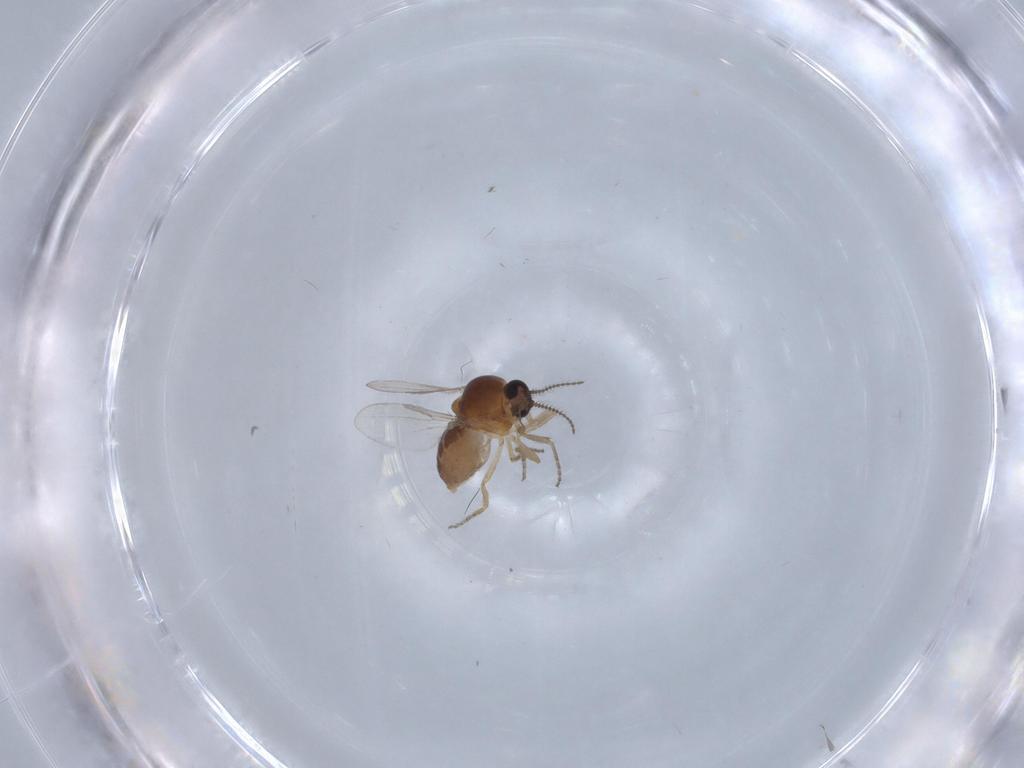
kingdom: Animalia
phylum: Arthropoda
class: Insecta
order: Diptera
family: Ceratopogonidae
